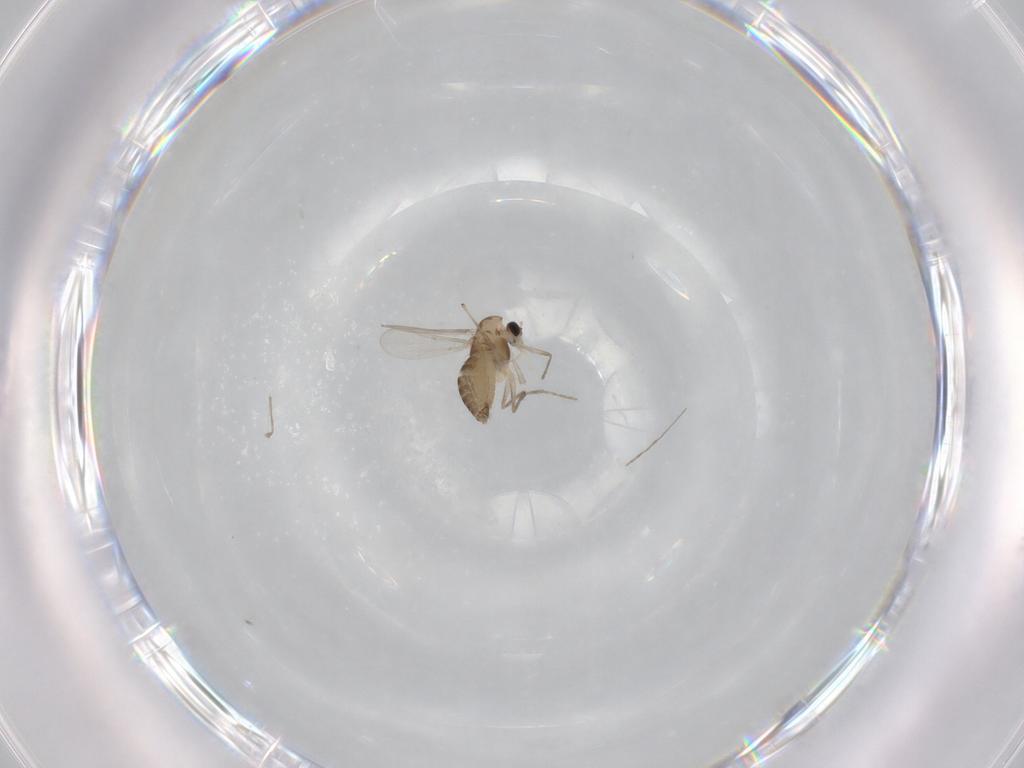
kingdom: Animalia
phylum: Arthropoda
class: Insecta
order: Diptera
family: Chironomidae
